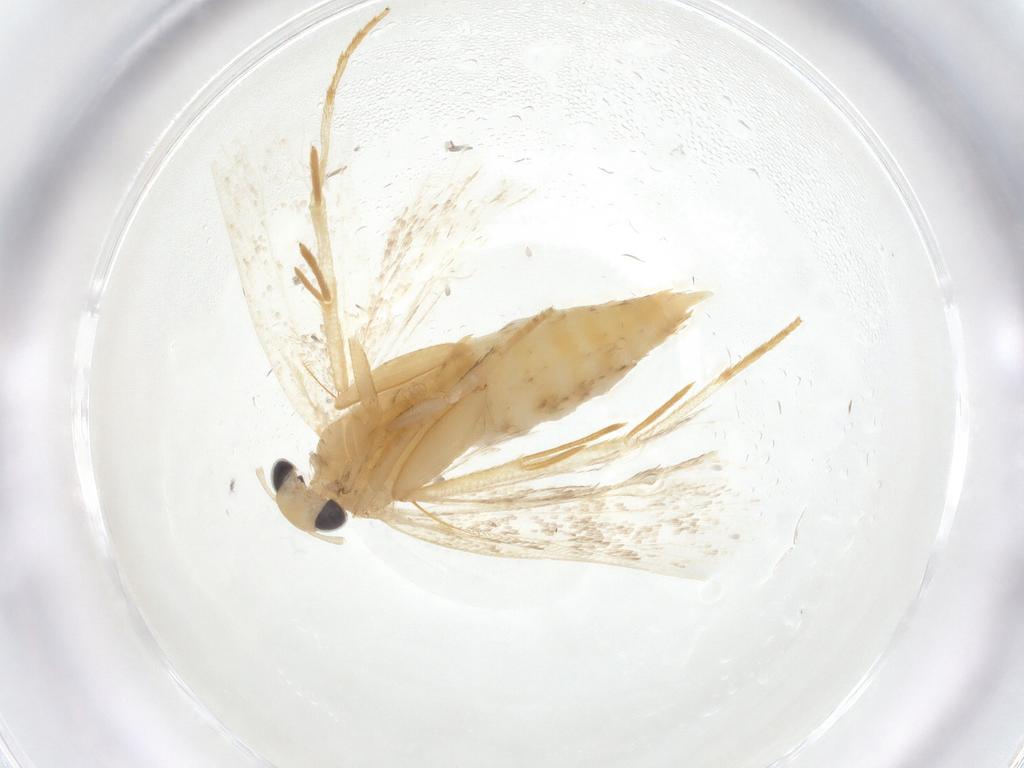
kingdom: Animalia
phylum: Arthropoda
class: Insecta
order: Lepidoptera
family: Gelechiidae
